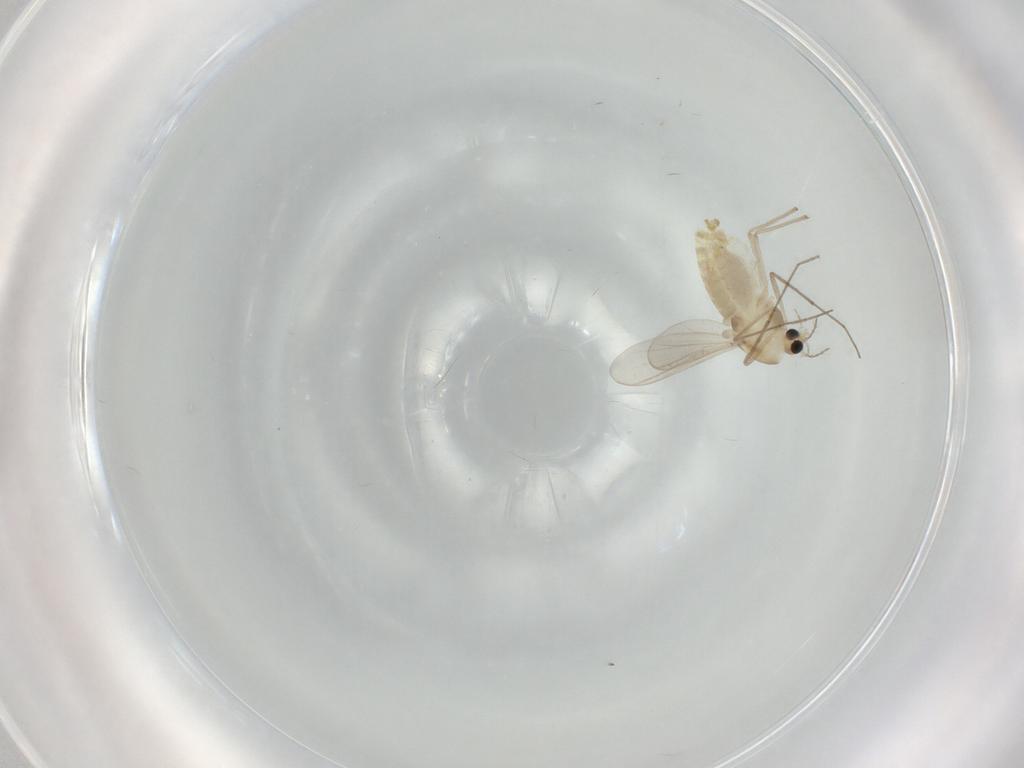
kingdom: Animalia
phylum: Arthropoda
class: Insecta
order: Diptera
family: Chironomidae
